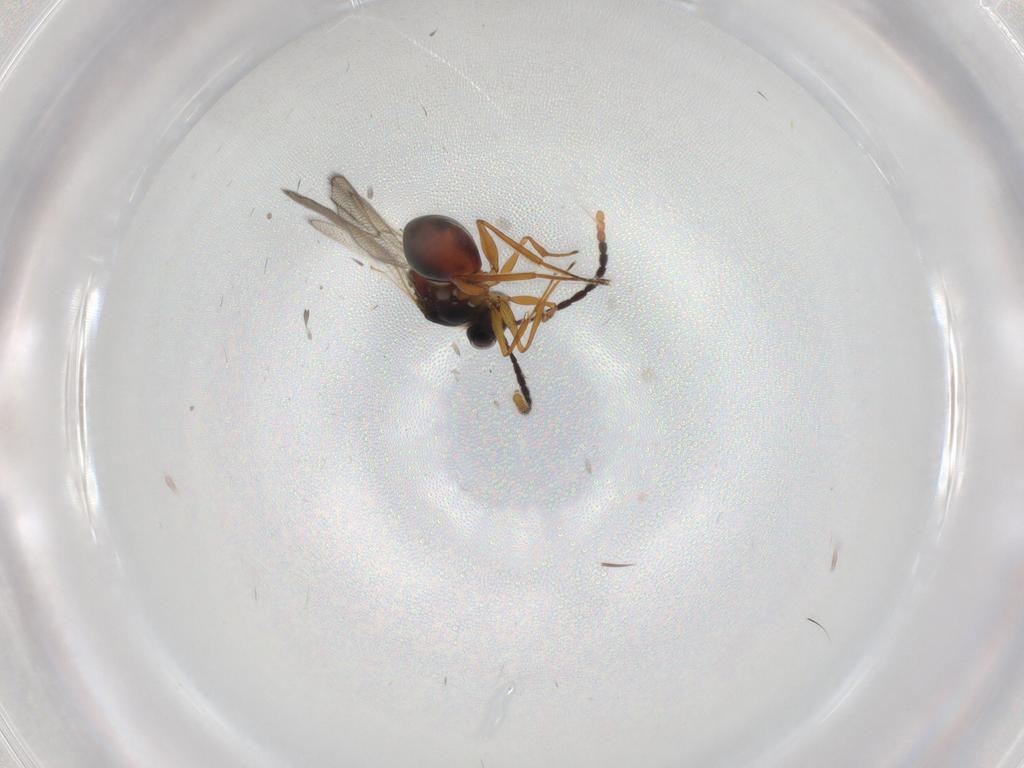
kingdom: Animalia
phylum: Arthropoda
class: Insecta
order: Hymenoptera
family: Figitidae
